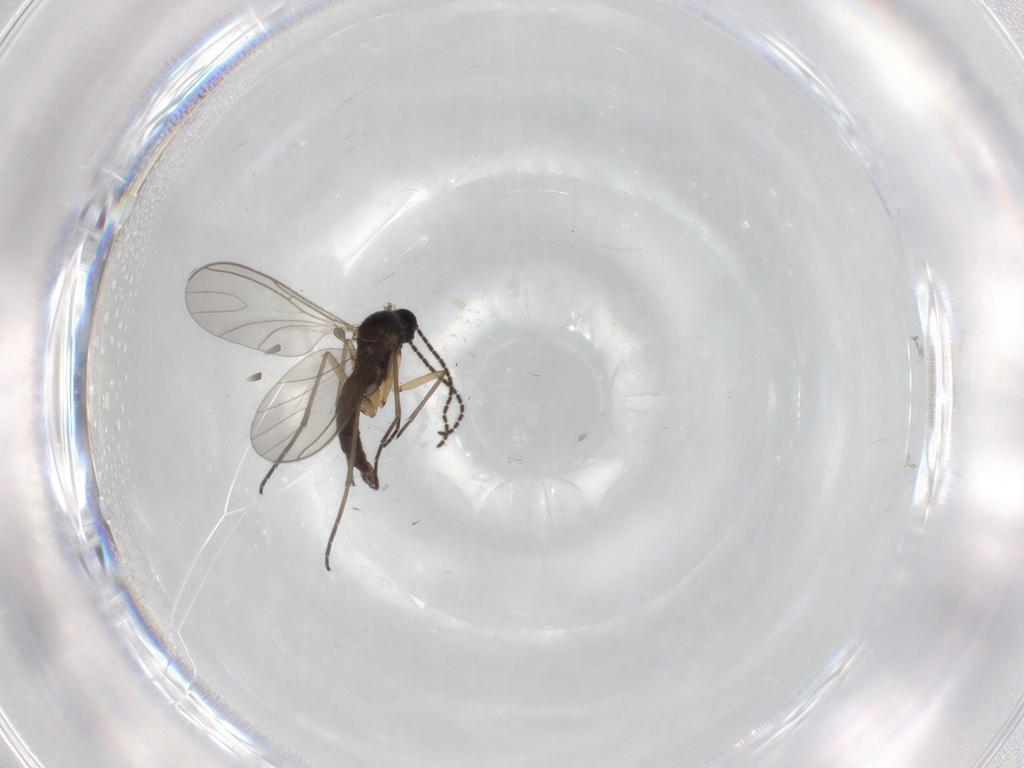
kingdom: Animalia
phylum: Arthropoda
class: Insecta
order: Diptera
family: Sciaridae
